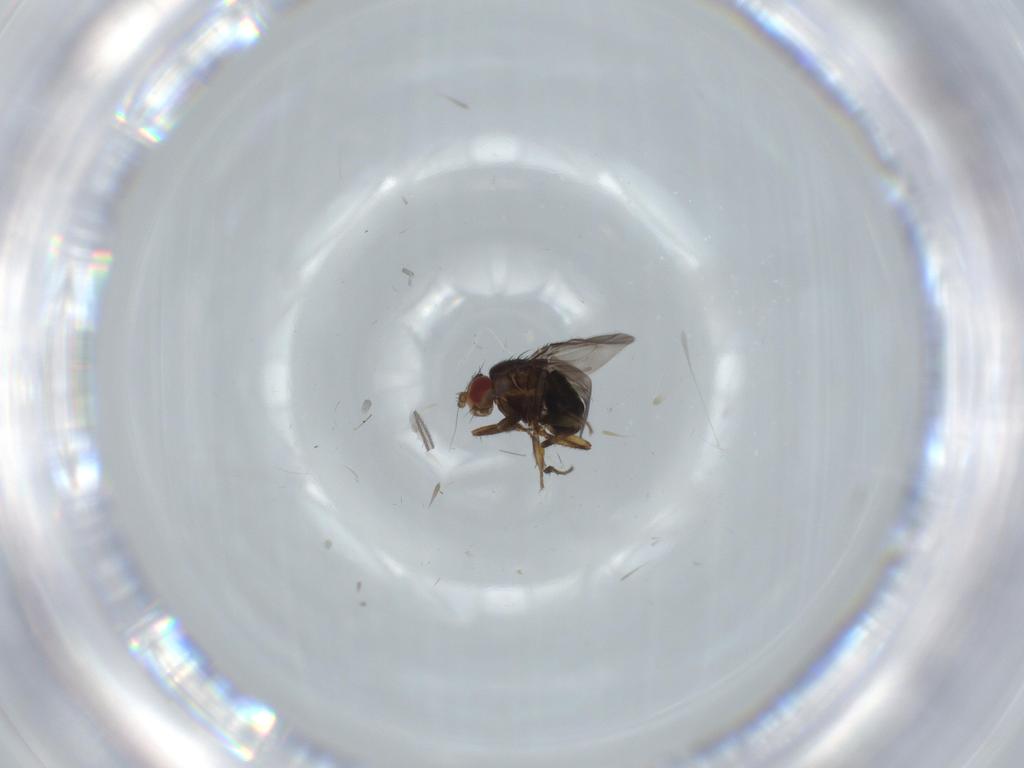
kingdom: Animalia
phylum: Arthropoda
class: Insecta
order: Diptera
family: Sphaeroceridae
